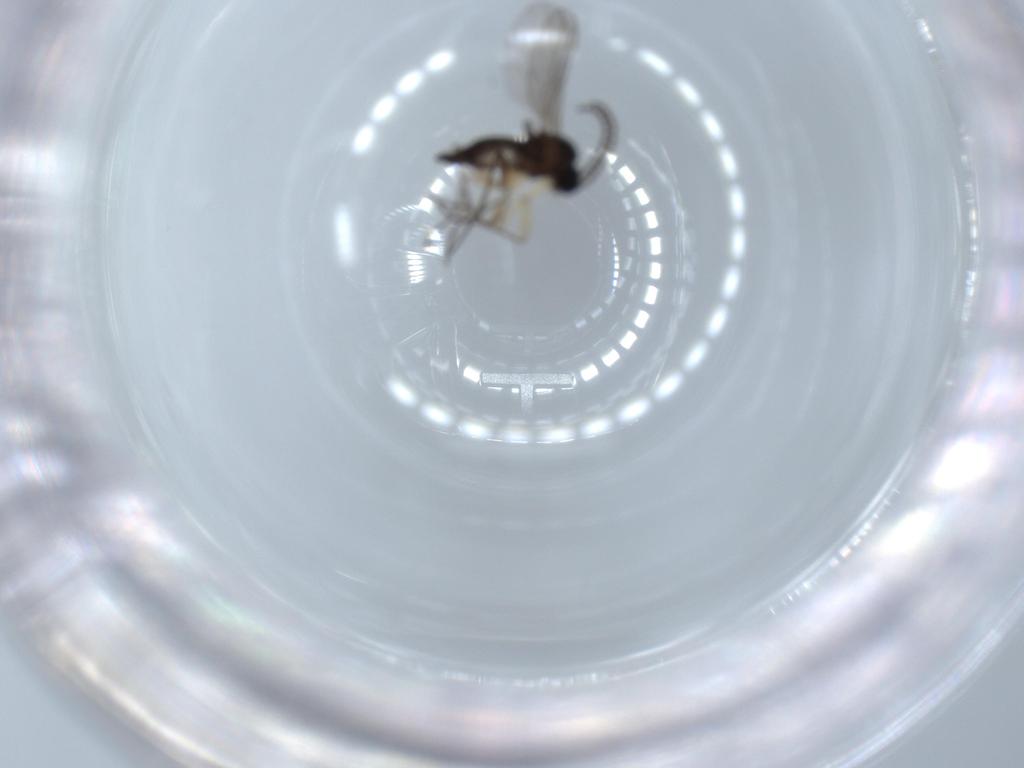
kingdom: Animalia
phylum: Arthropoda
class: Insecta
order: Diptera
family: Sciaridae
